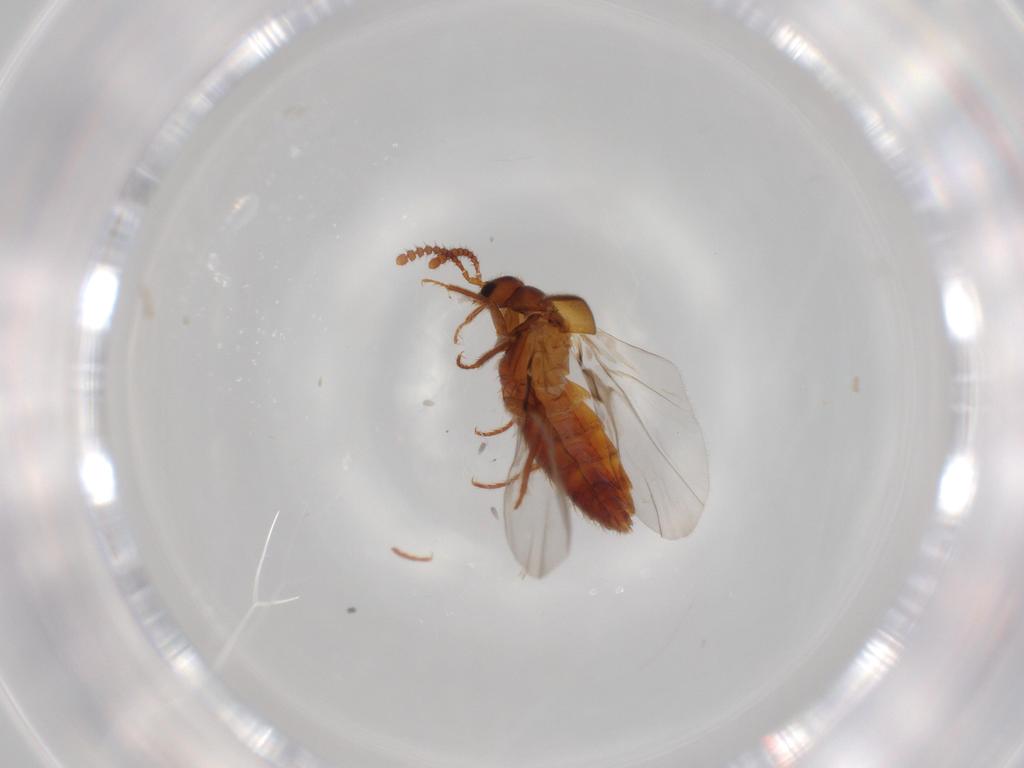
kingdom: Animalia
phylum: Arthropoda
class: Insecta
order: Coleoptera
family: Staphylinidae
